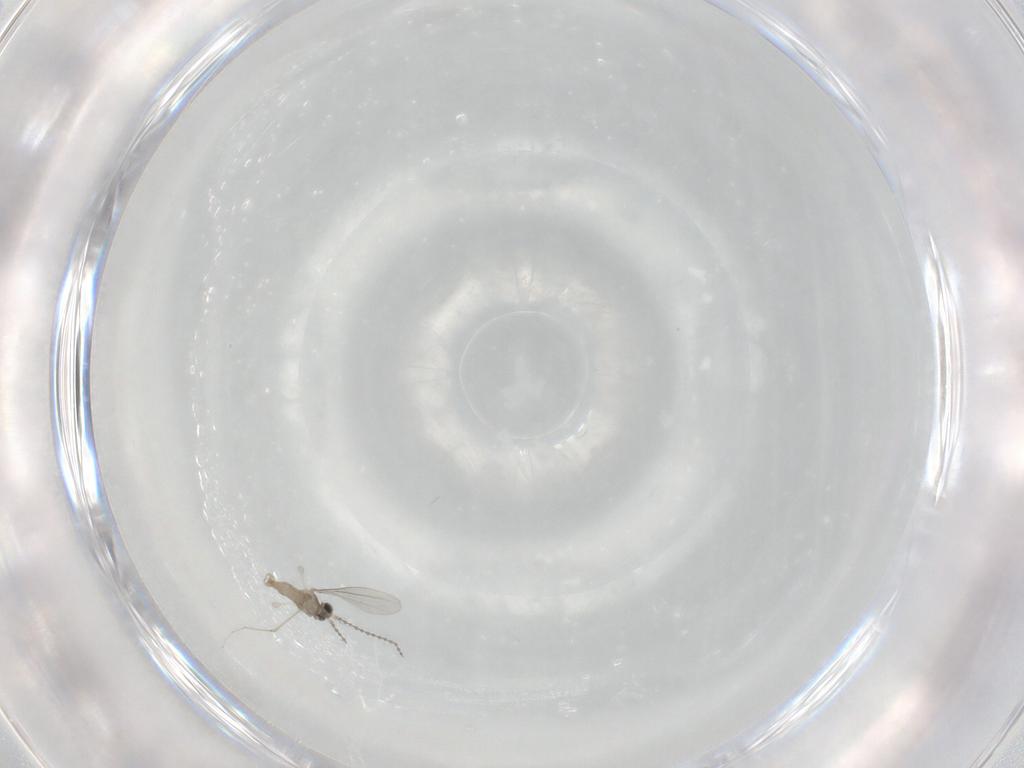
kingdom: Animalia
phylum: Arthropoda
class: Insecta
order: Diptera
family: Cecidomyiidae
